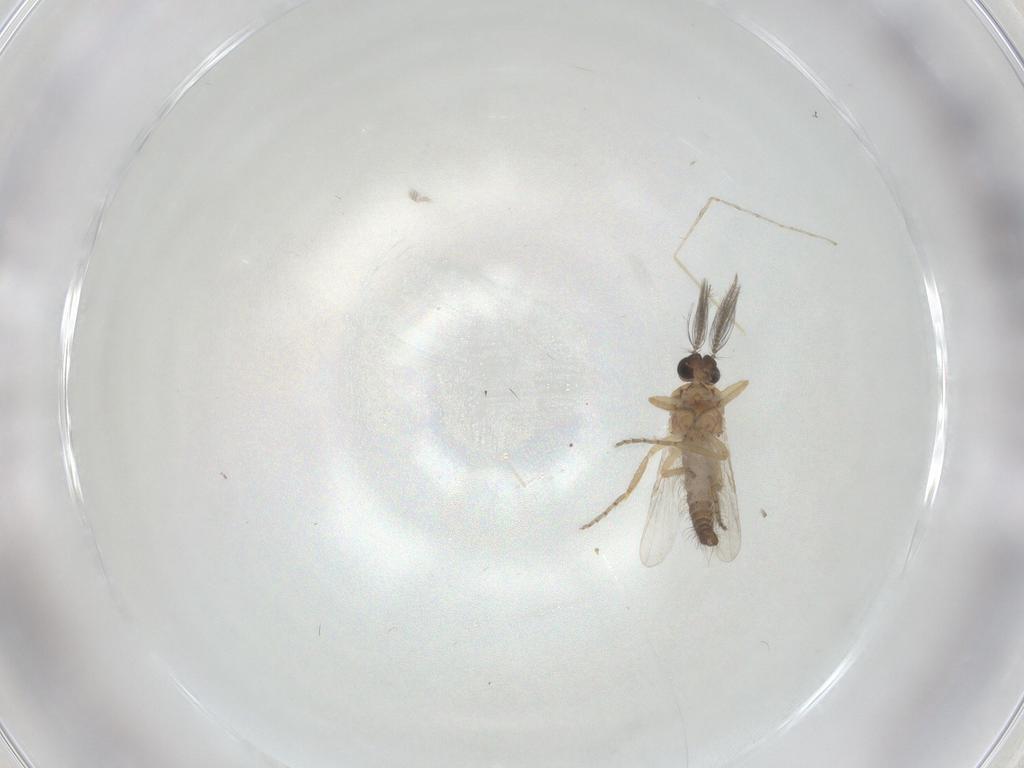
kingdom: Animalia
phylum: Arthropoda
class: Insecta
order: Diptera
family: Ceratopogonidae
